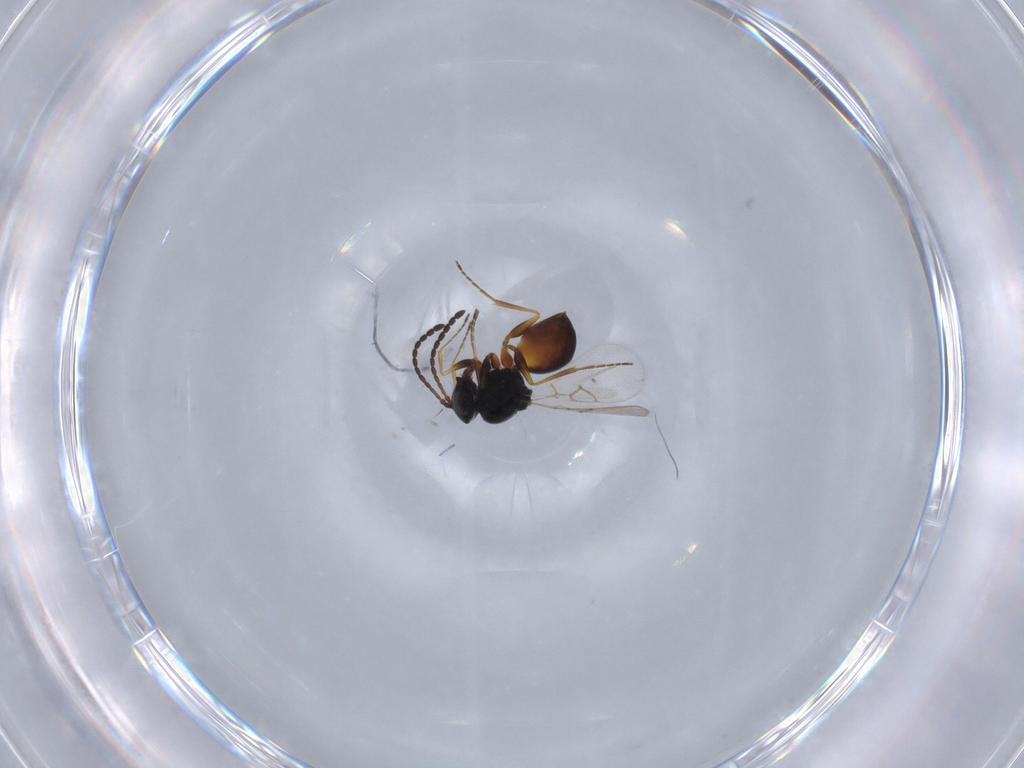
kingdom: Animalia
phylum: Arthropoda
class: Insecta
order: Hymenoptera
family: Figitidae
